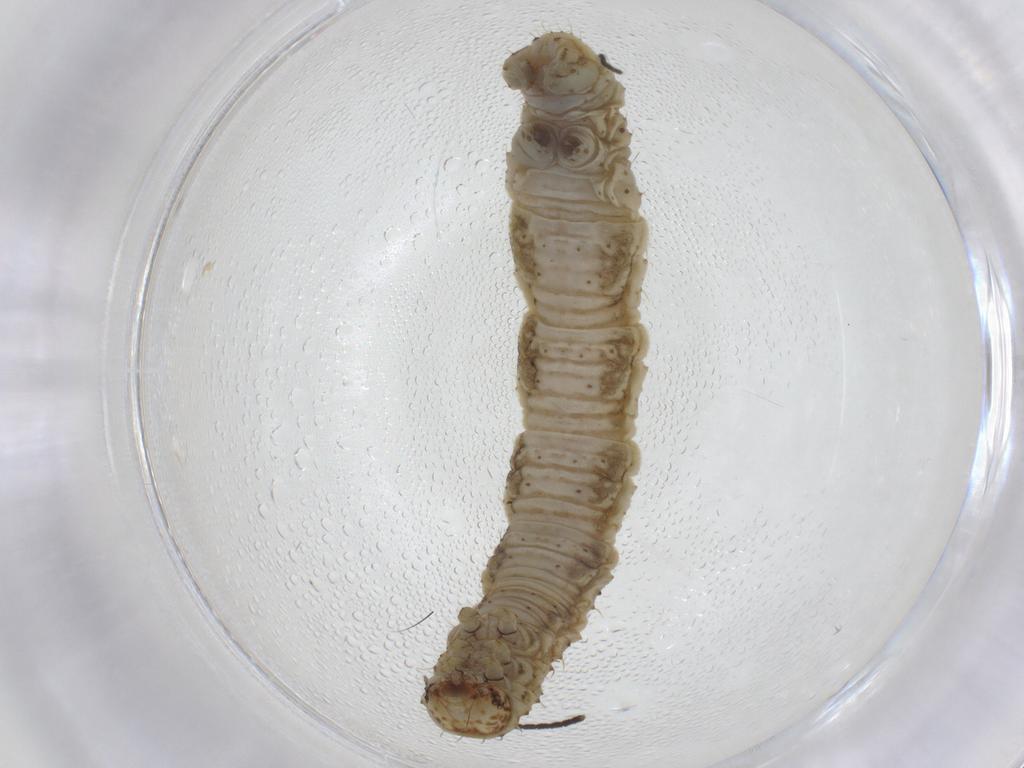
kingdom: Animalia
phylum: Arthropoda
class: Insecta
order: Diptera
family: Chironomidae
